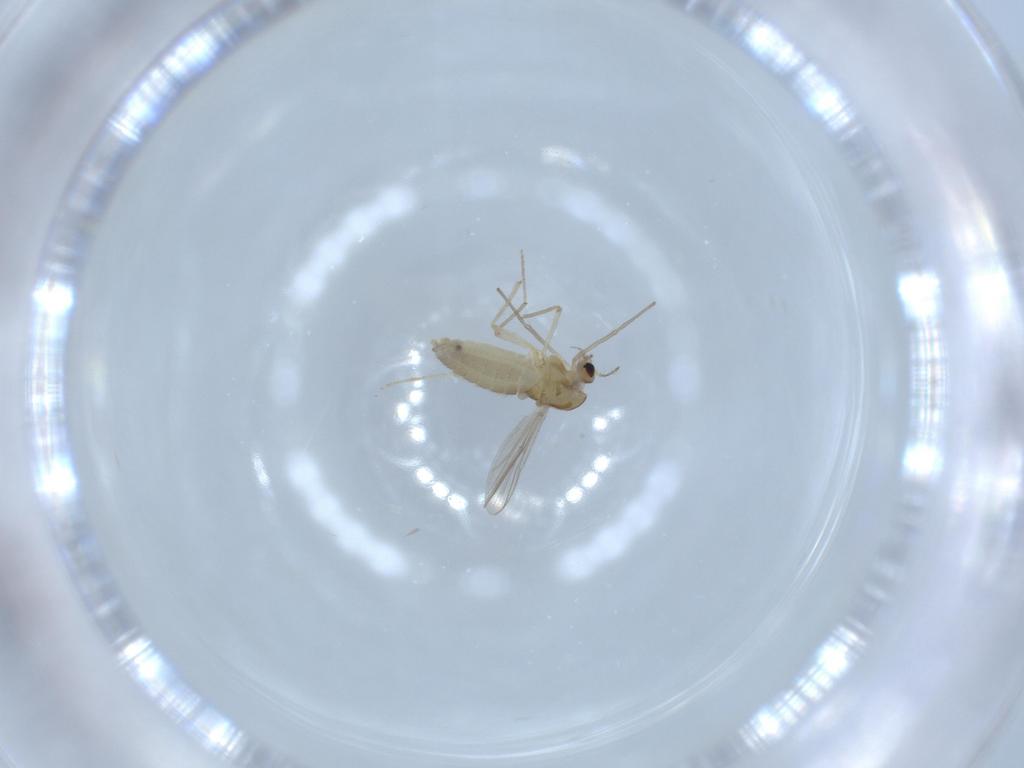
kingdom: Animalia
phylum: Arthropoda
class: Insecta
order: Diptera
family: Chironomidae
